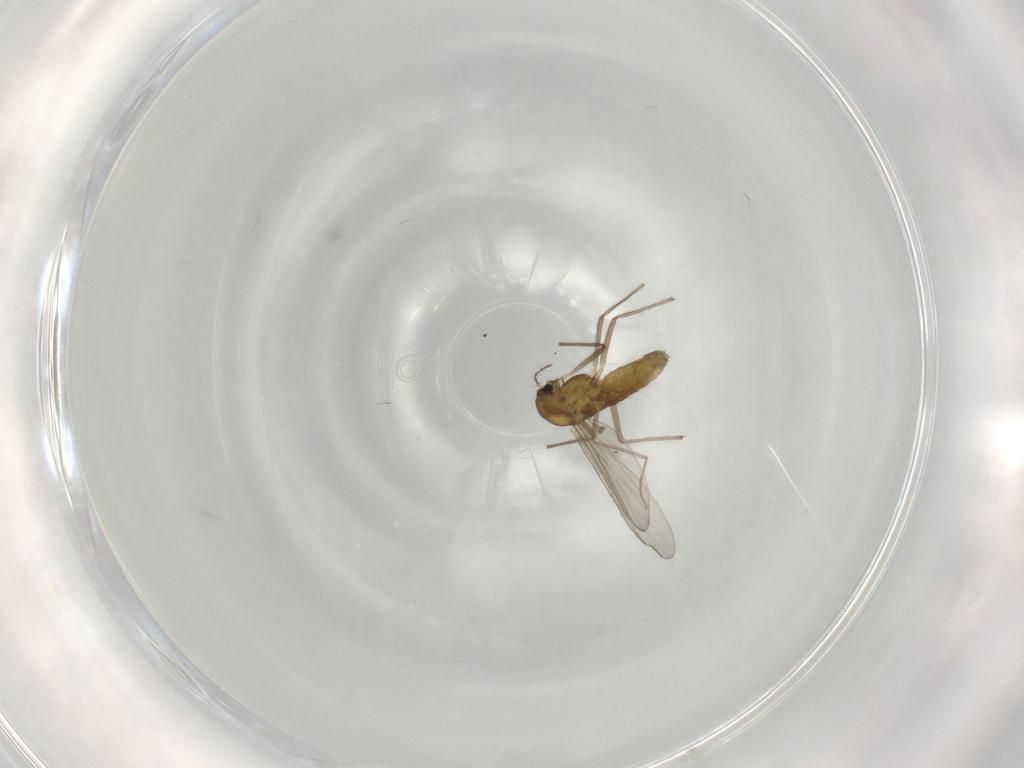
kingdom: Animalia
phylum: Arthropoda
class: Insecta
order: Diptera
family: Chironomidae
